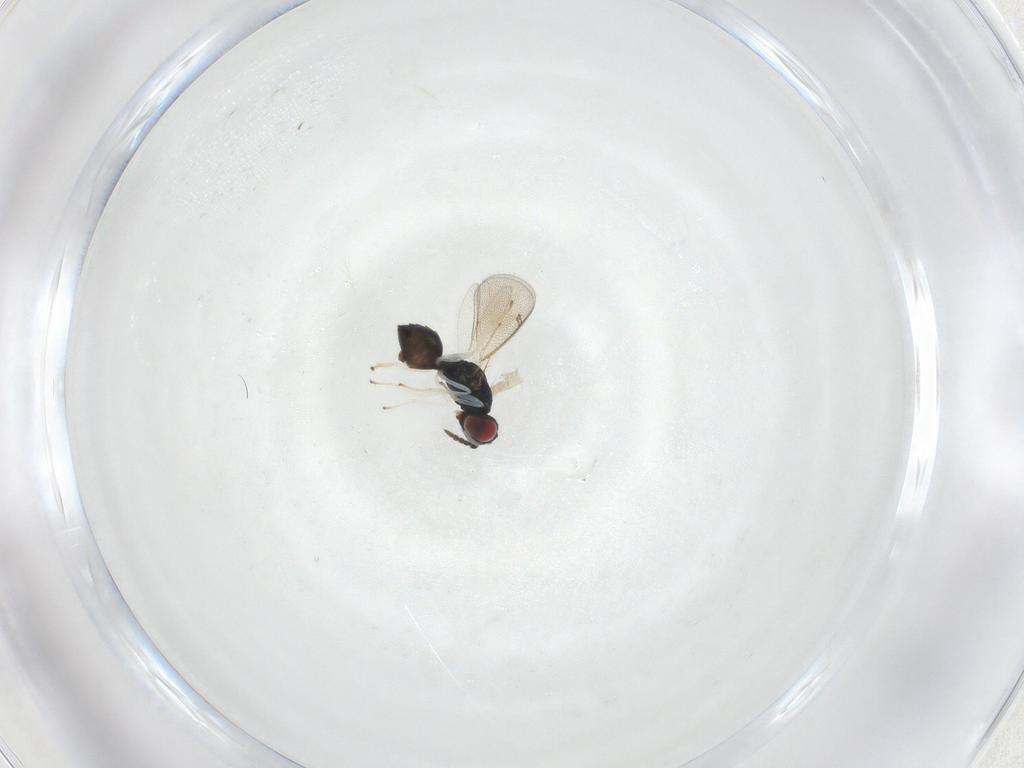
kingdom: Animalia
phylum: Arthropoda
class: Insecta
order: Hymenoptera
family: Eulophidae
